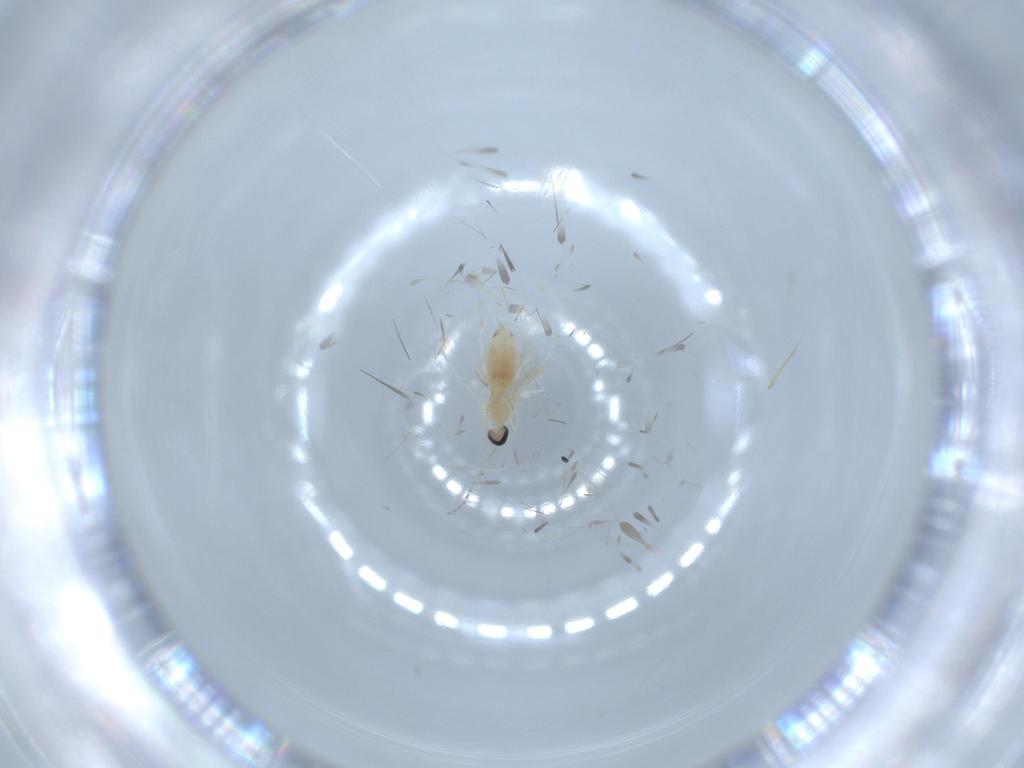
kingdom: Animalia
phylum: Arthropoda
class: Insecta
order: Diptera
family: Cecidomyiidae
